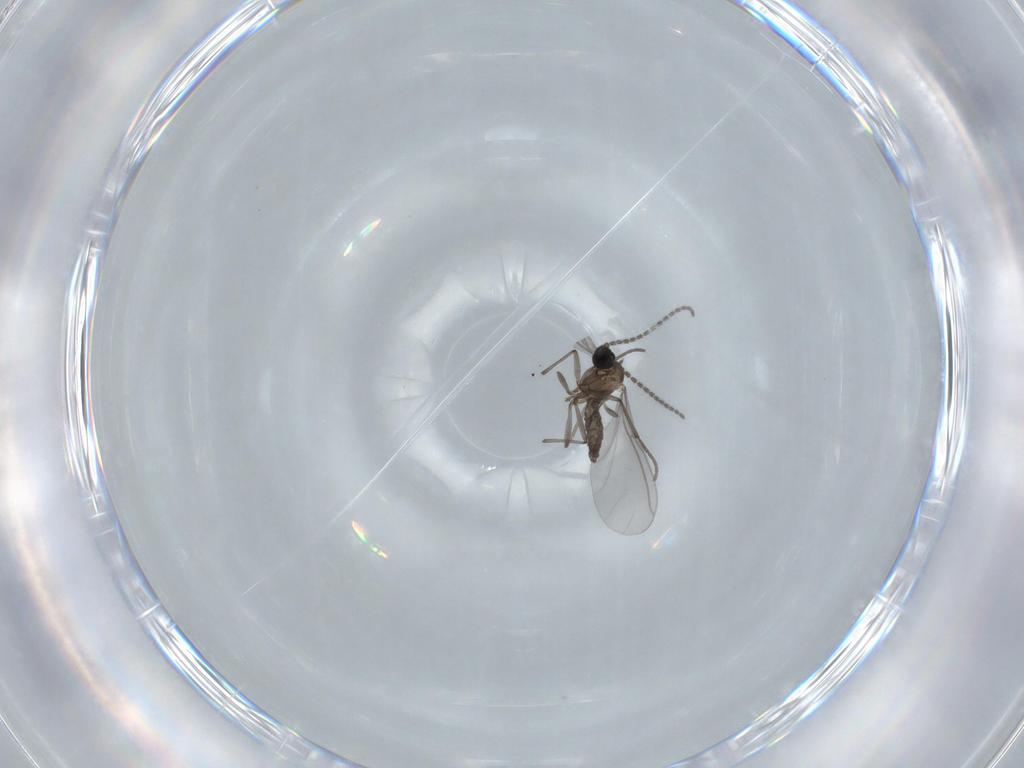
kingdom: Animalia
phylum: Arthropoda
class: Insecta
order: Diptera
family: Sciaridae
